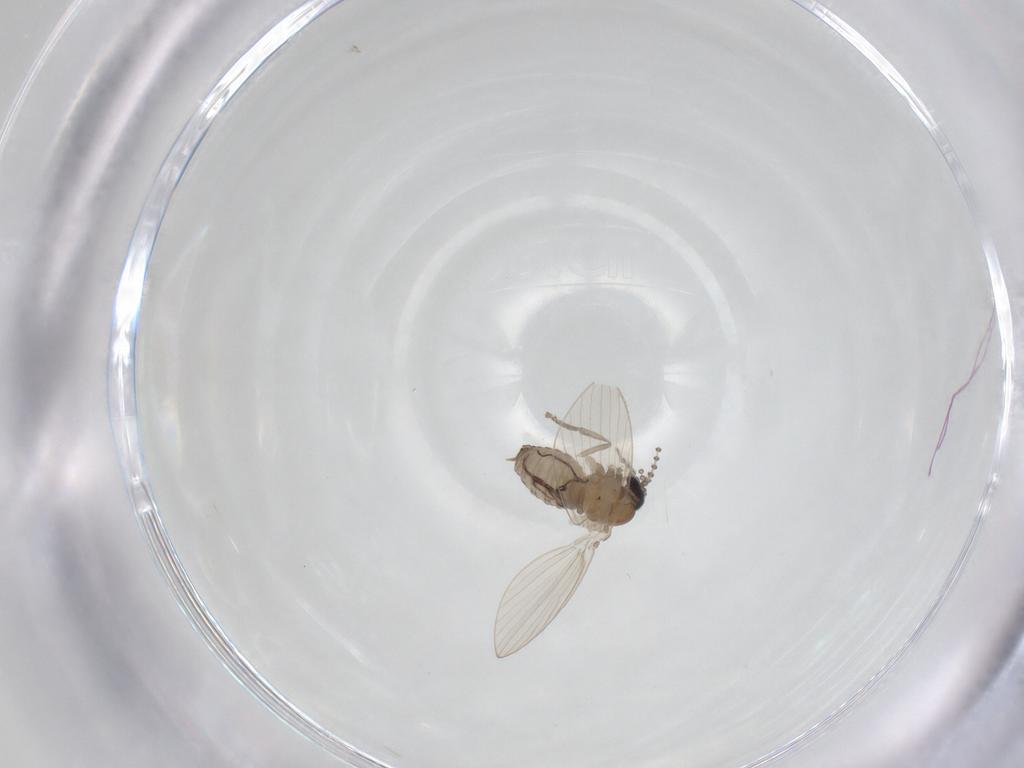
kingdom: Animalia
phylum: Arthropoda
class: Insecta
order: Diptera
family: Psychodidae
